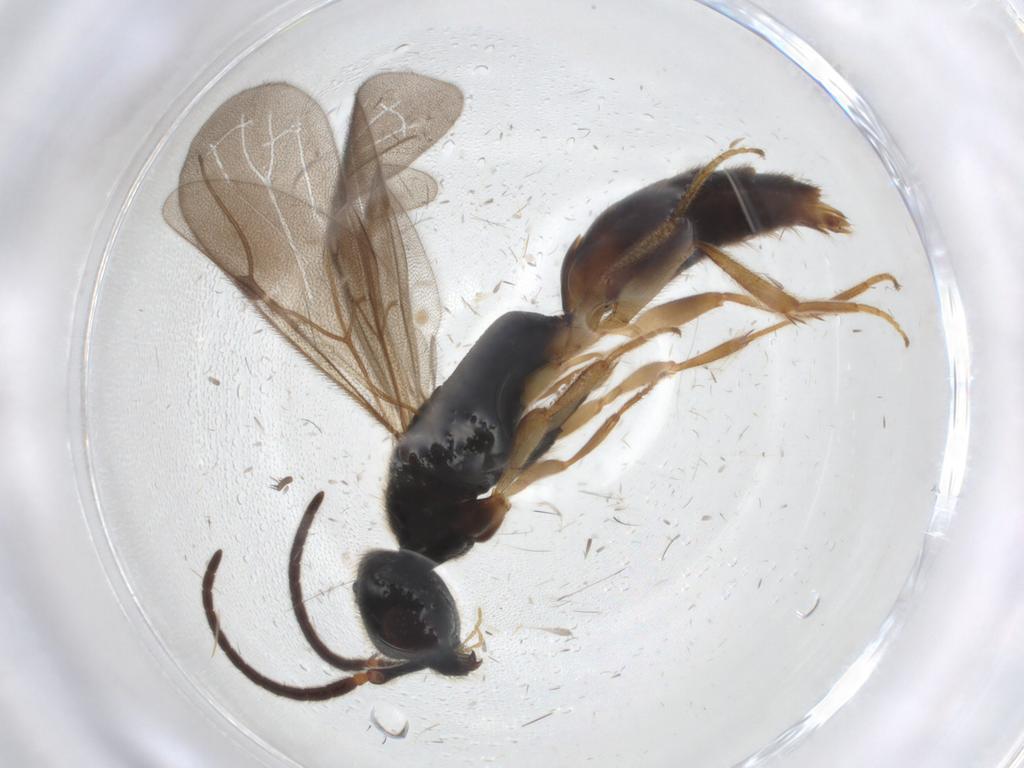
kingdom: Animalia
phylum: Arthropoda
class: Insecta
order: Hymenoptera
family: Bethylidae
